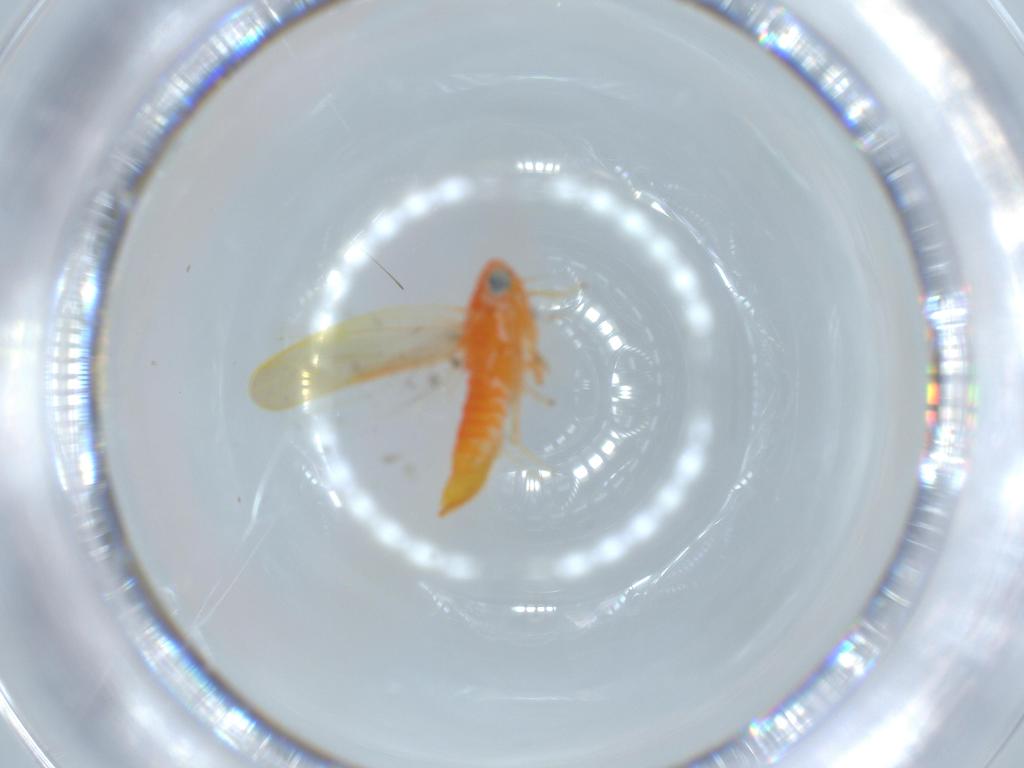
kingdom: Animalia
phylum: Arthropoda
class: Insecta
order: Hemiptera
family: Cicadellidae
